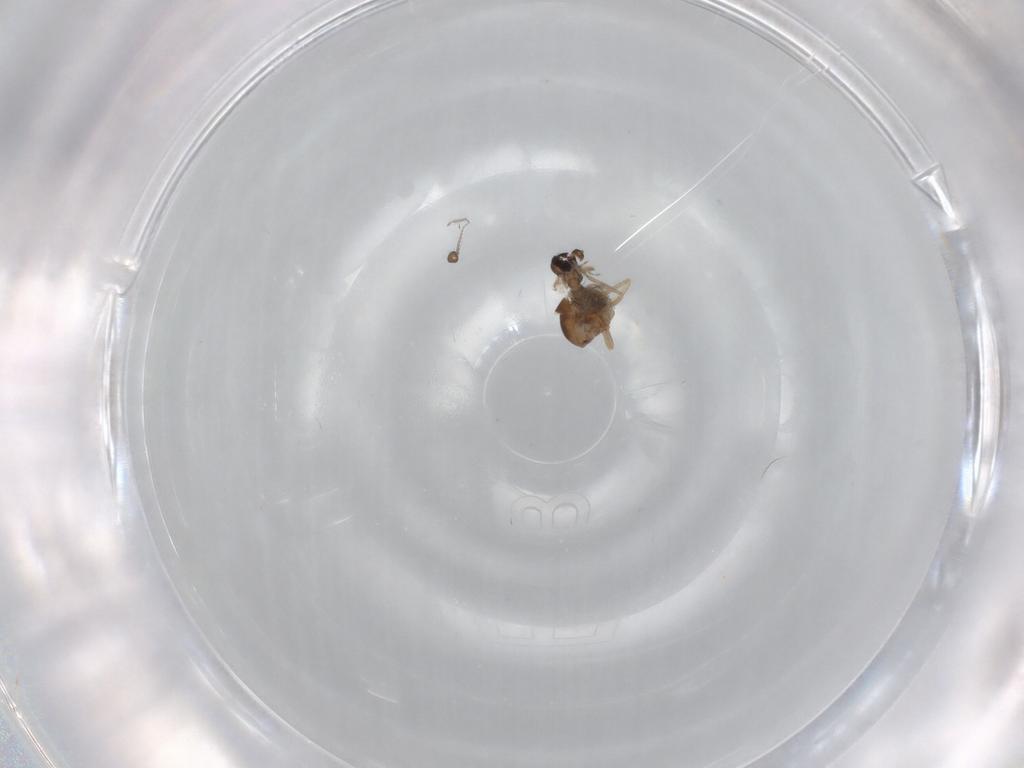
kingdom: Animalia
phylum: Arthropoda
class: Insecta
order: Diptera
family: Ceratopogonidae
